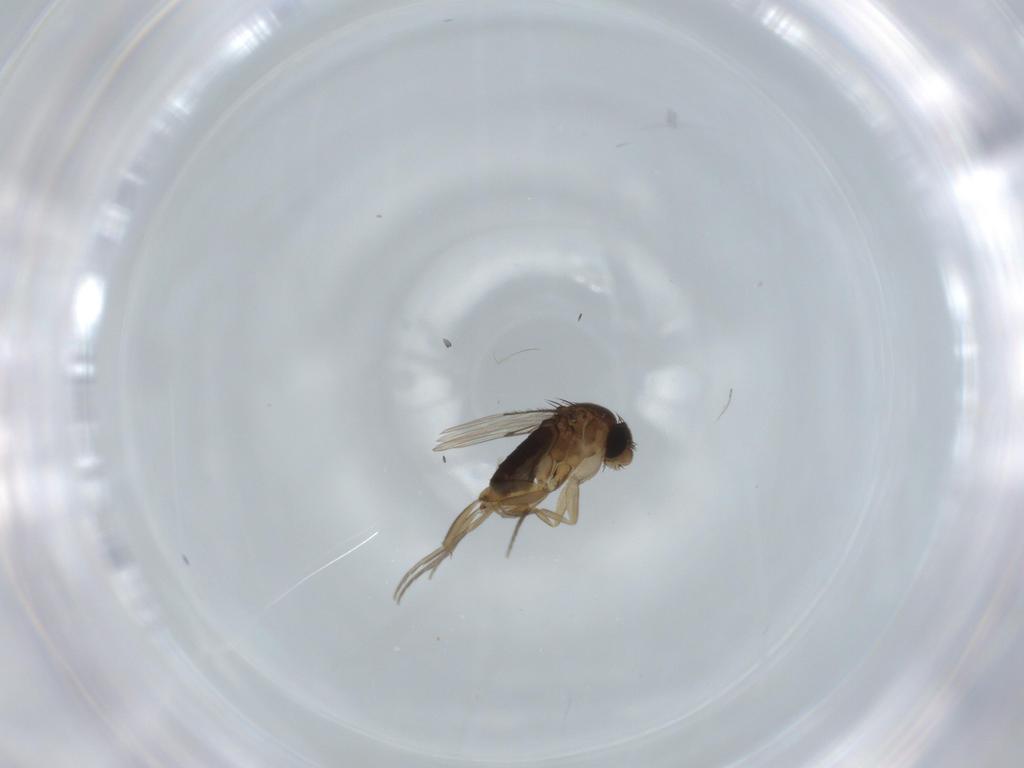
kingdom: Animalia
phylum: Arthropoda
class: Insecta
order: Diptera
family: Phoridae
